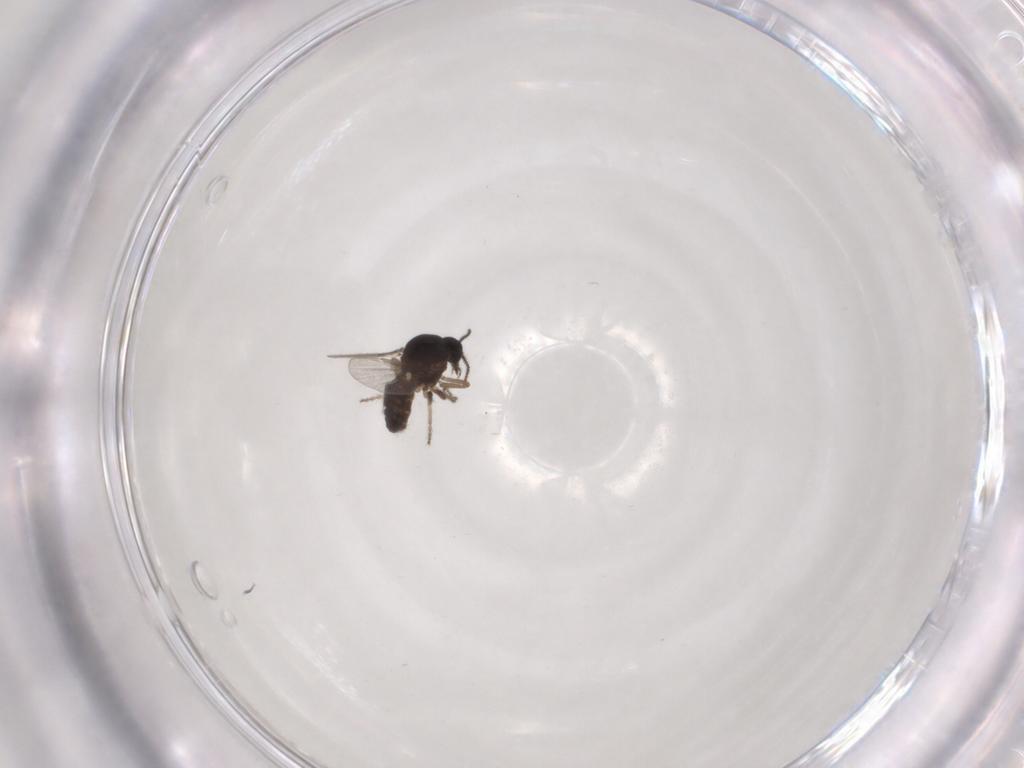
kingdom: Animalia
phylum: Arthropoda
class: Insecta
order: Diptera
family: Ceratopogonidae
